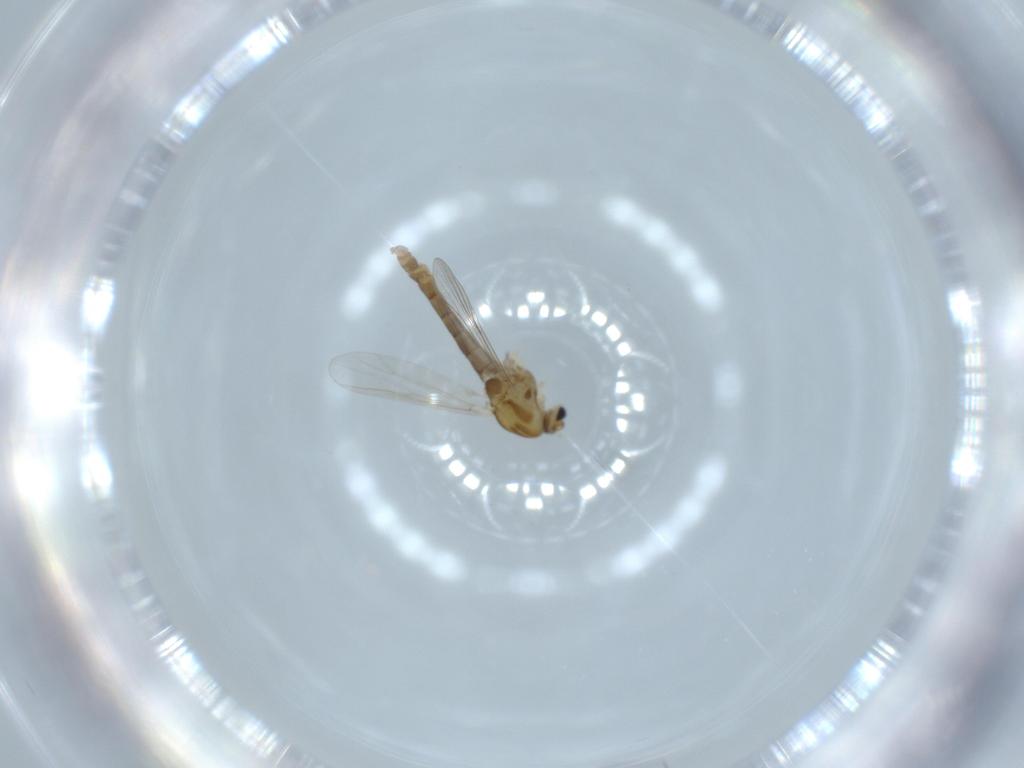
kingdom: Animalia
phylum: Arthropoda
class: Insecta
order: Diptera
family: Chironomidae
